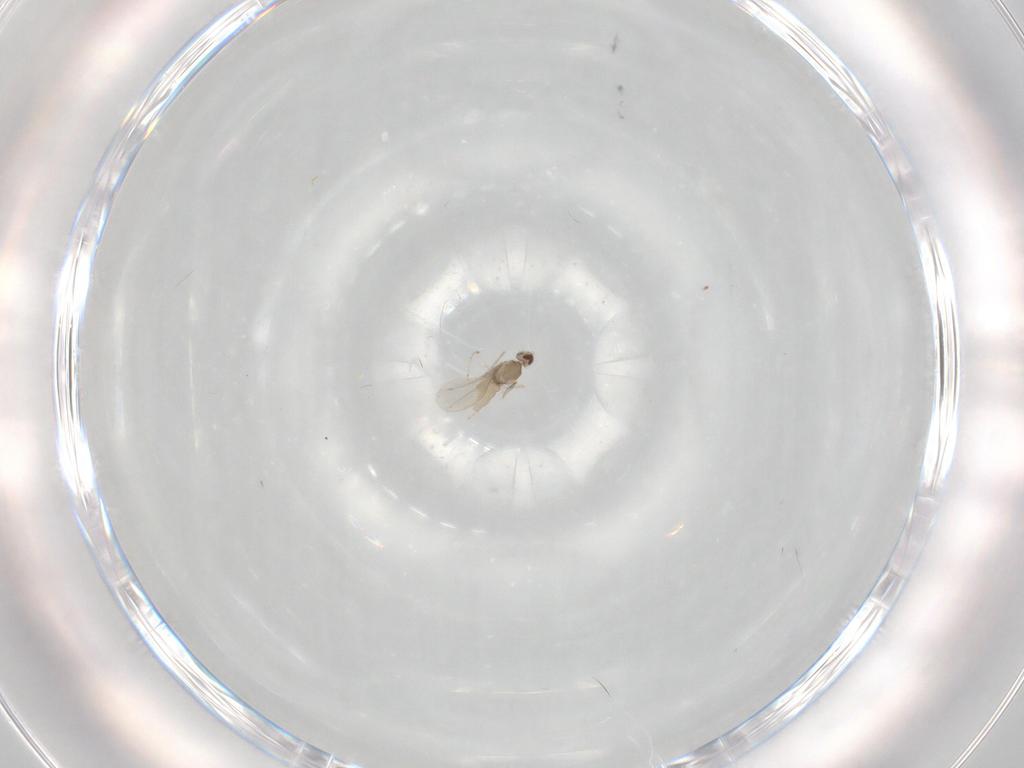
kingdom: Animalia
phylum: Arthropoda
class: Insecta
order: Diptera
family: Cecidomyiidae
